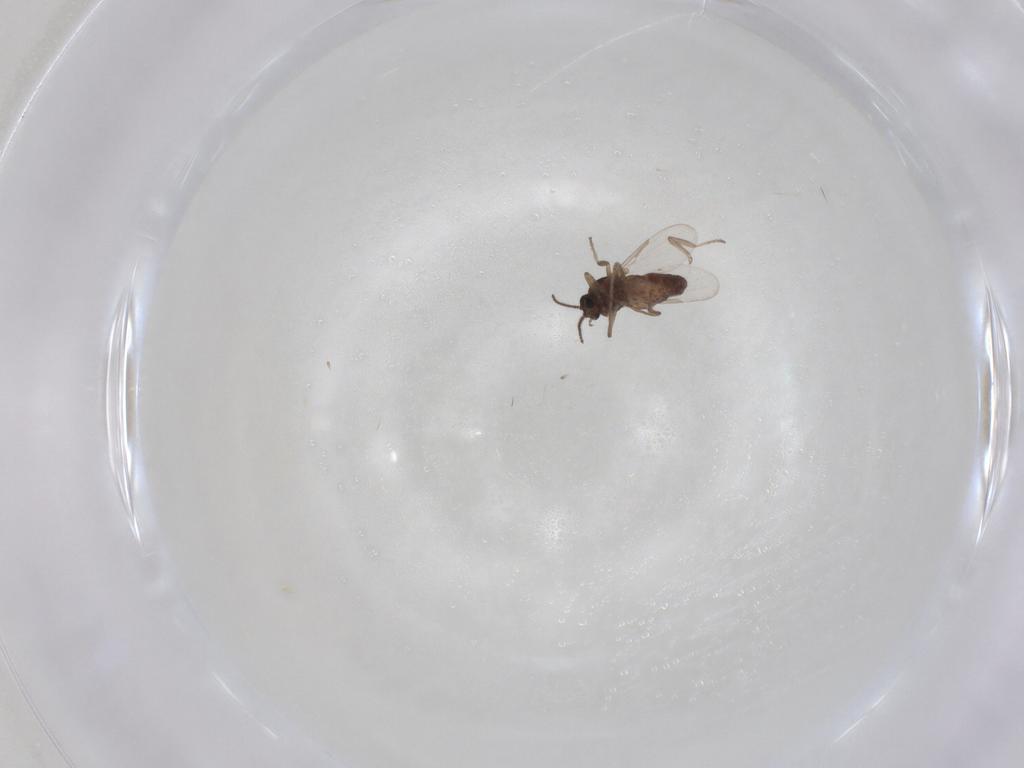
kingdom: Animalia
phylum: Arthropoda
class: Insecta
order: Diptera
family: Ceratopogonidae
